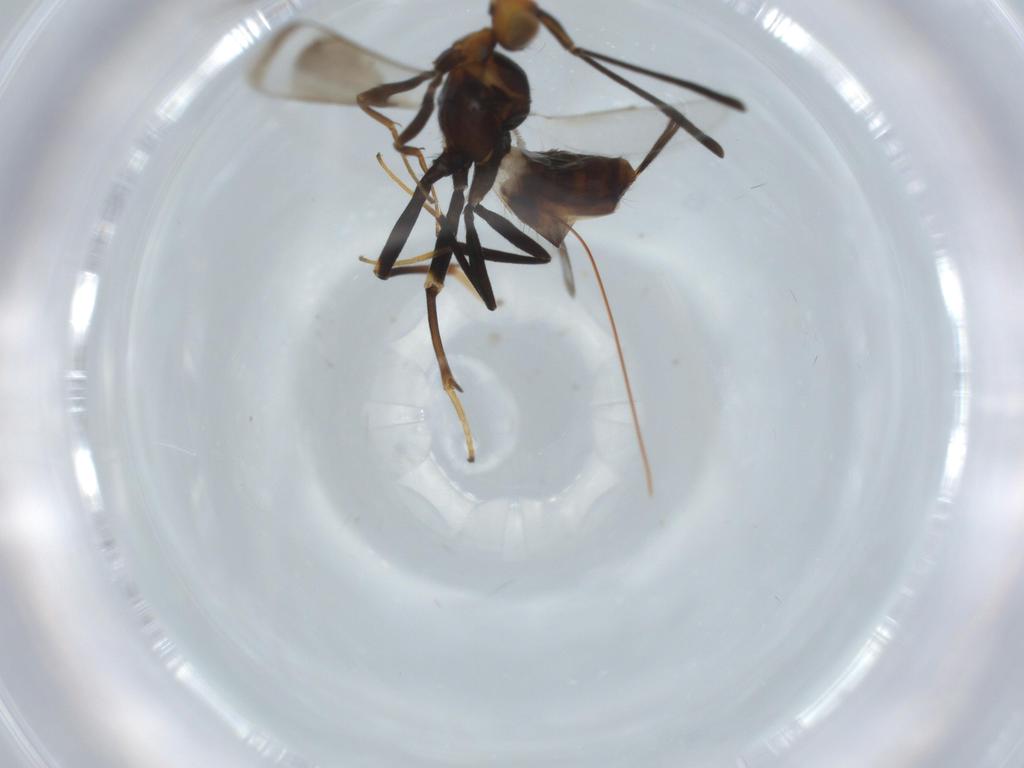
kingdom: Animalia
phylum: Arthropoda
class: Insecta
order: Hymenoptera
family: Eupelmidae
